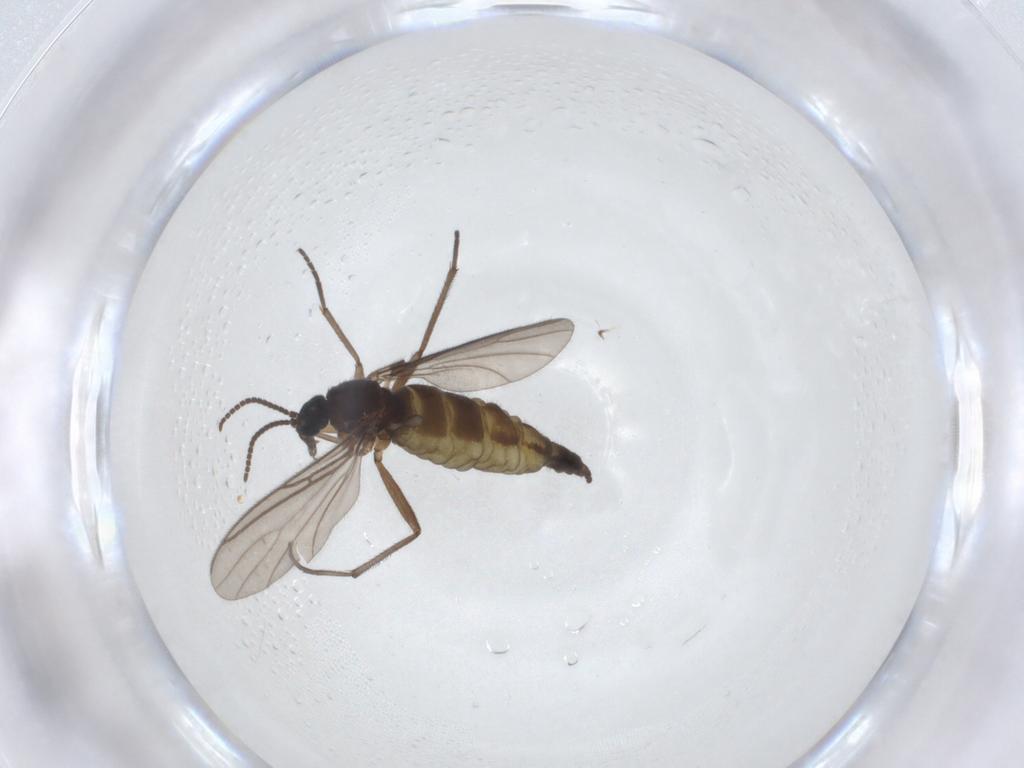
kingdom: Animalia
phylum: Arthropoda
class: Insecta
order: Diptera
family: Sciaridae
